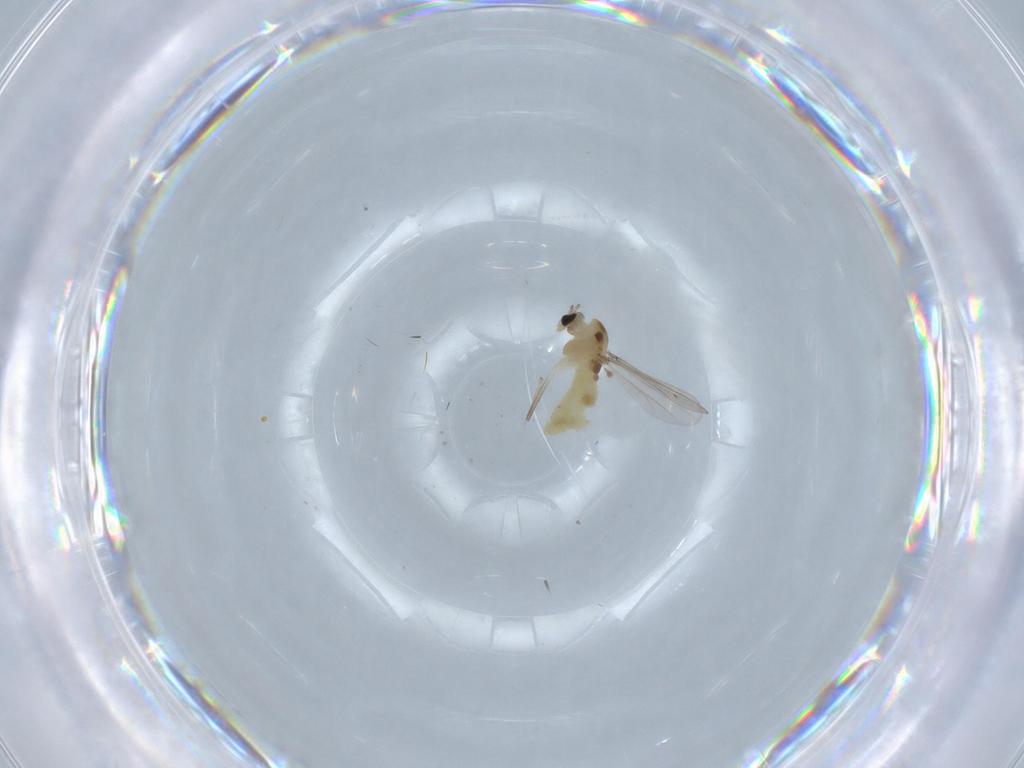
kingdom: Animalia
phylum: Arthropoda
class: Insecta
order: Diptera
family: Chironomidae
